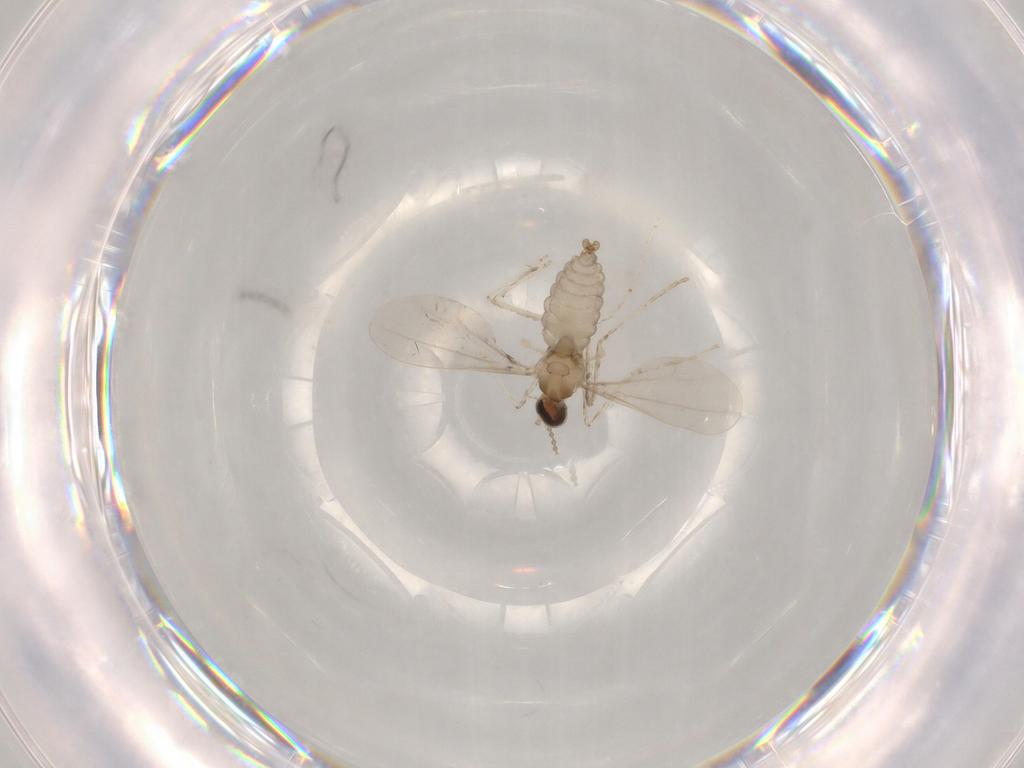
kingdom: Animalia
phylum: Arthropoda
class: Insecta
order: Diptera
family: Cecidomyiidae
